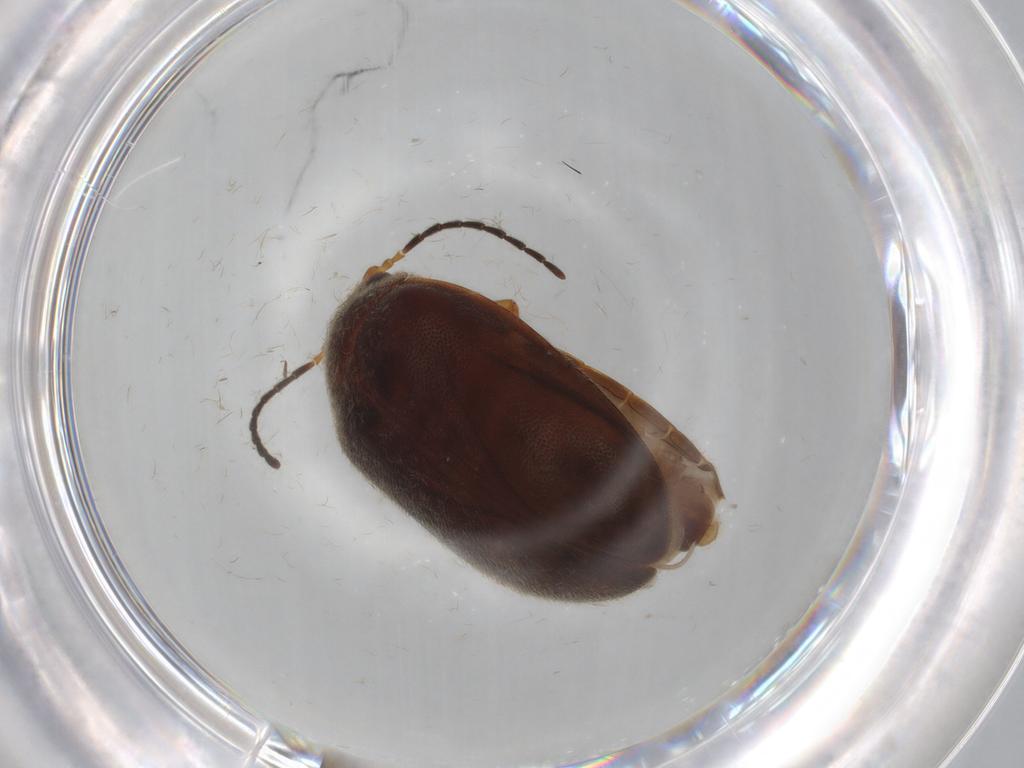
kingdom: Animalia
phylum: Arthropoda
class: Insecta
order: Coleoptera
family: Scirtidae
